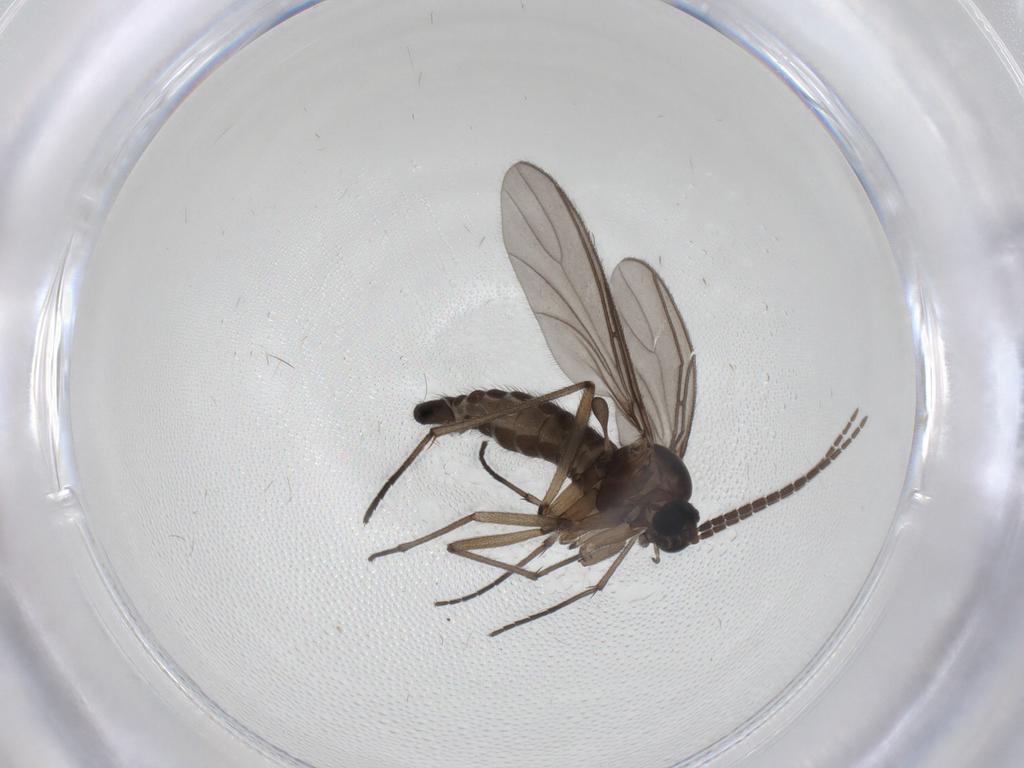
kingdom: Animalia
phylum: Arthropoda
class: Insecta
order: Diptera
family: Sciaridae
